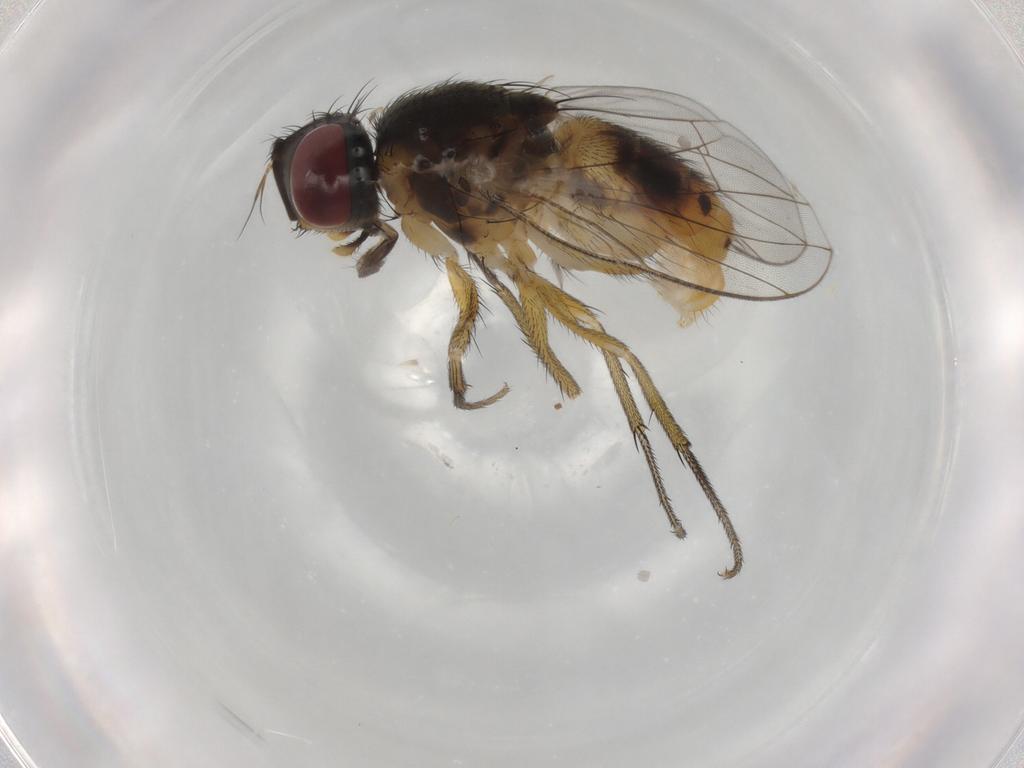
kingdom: Animalia
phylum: Arthropoda
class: Insecta
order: Diptera
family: Muscidae
